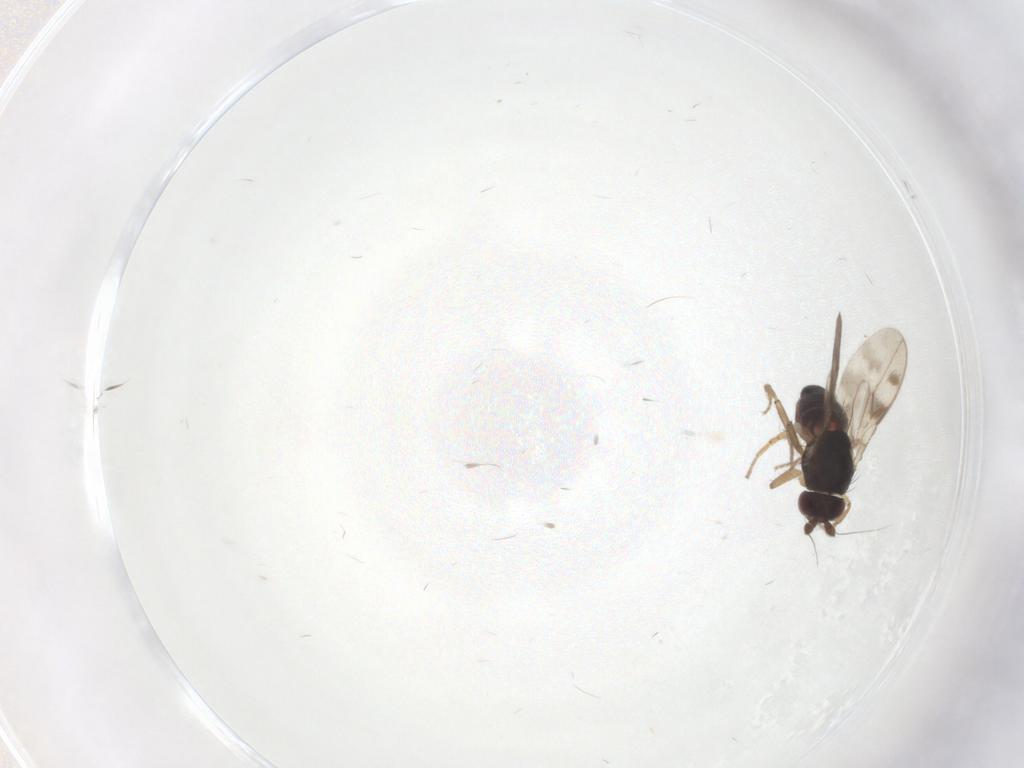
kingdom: Animalia
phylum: Arthropoda
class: Insecta
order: Diptera
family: Sphaeroceridae
